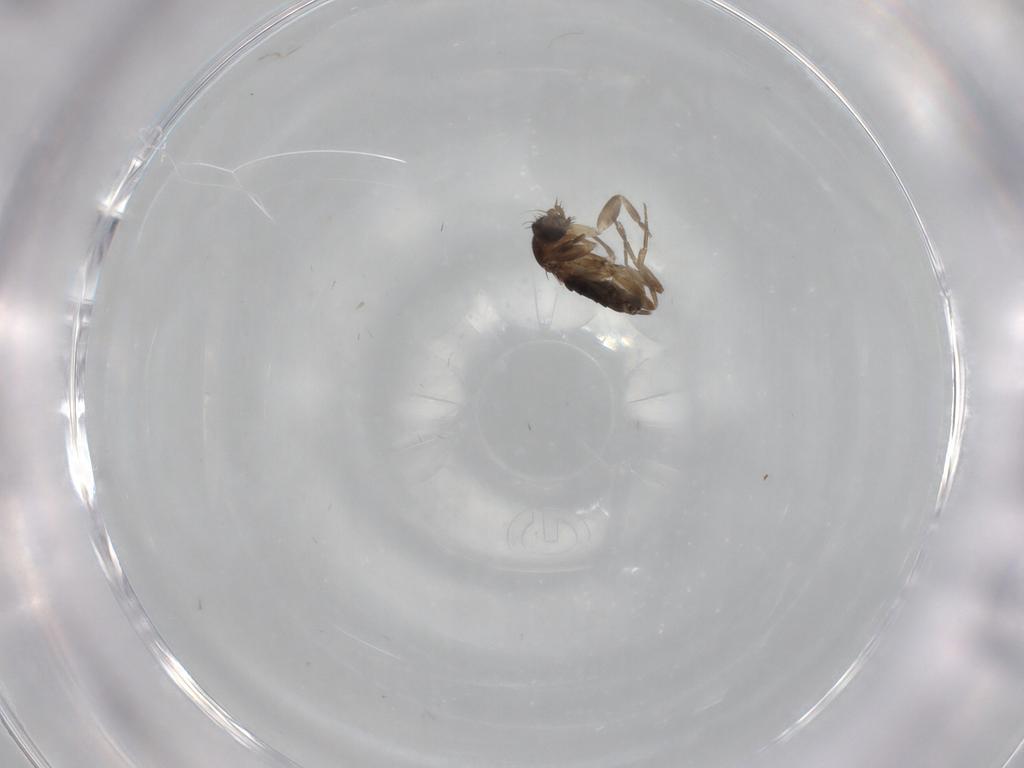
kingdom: Animalia
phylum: Arthropoda
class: Insecta
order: Diptera
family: Phoridae
